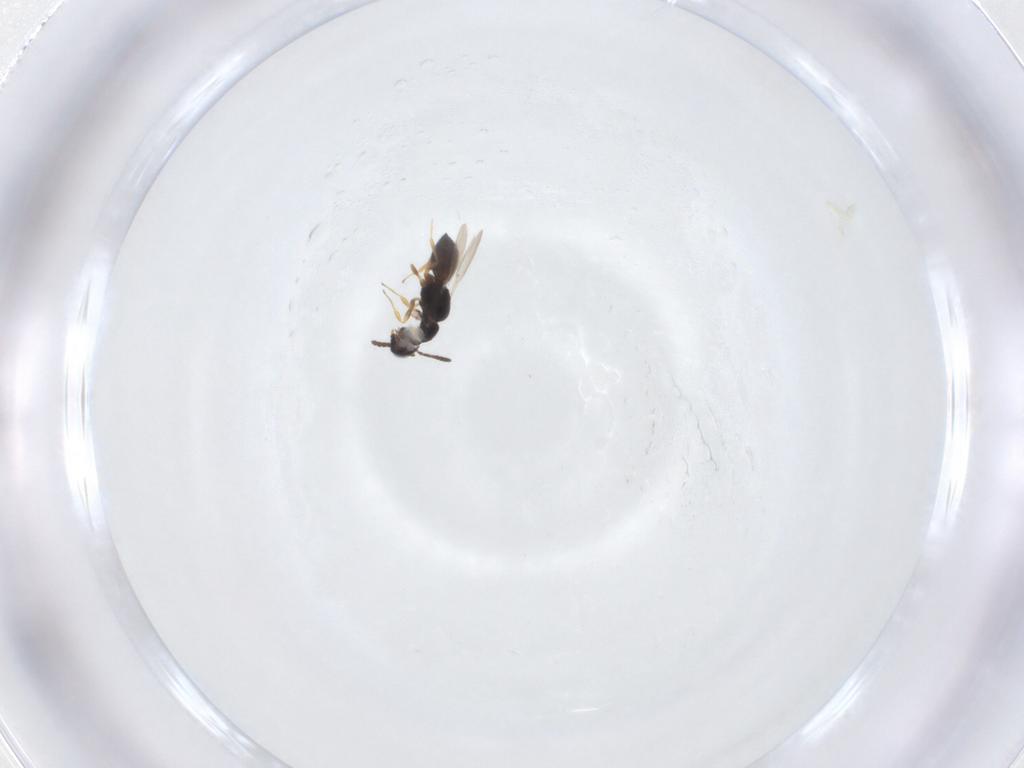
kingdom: Animalia
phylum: Arthropoda
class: Insecta
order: Hymenoptera
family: Scelionidae
